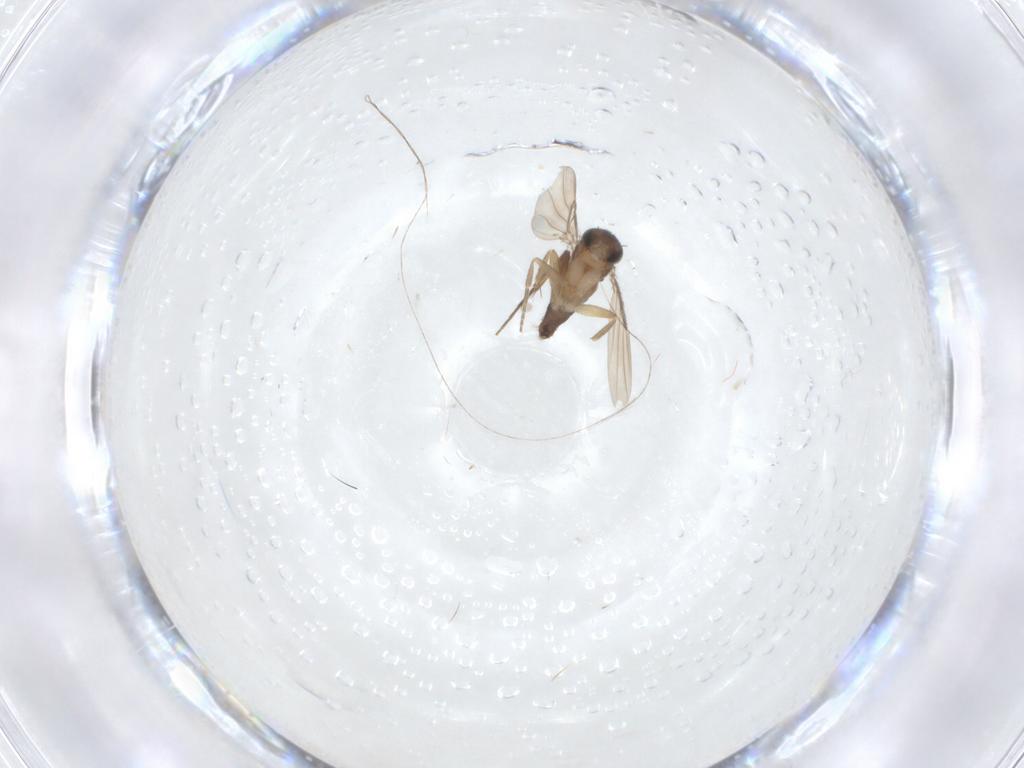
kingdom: Animalia
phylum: Arthropoda
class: Insecta
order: Diptera
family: Phoridae
